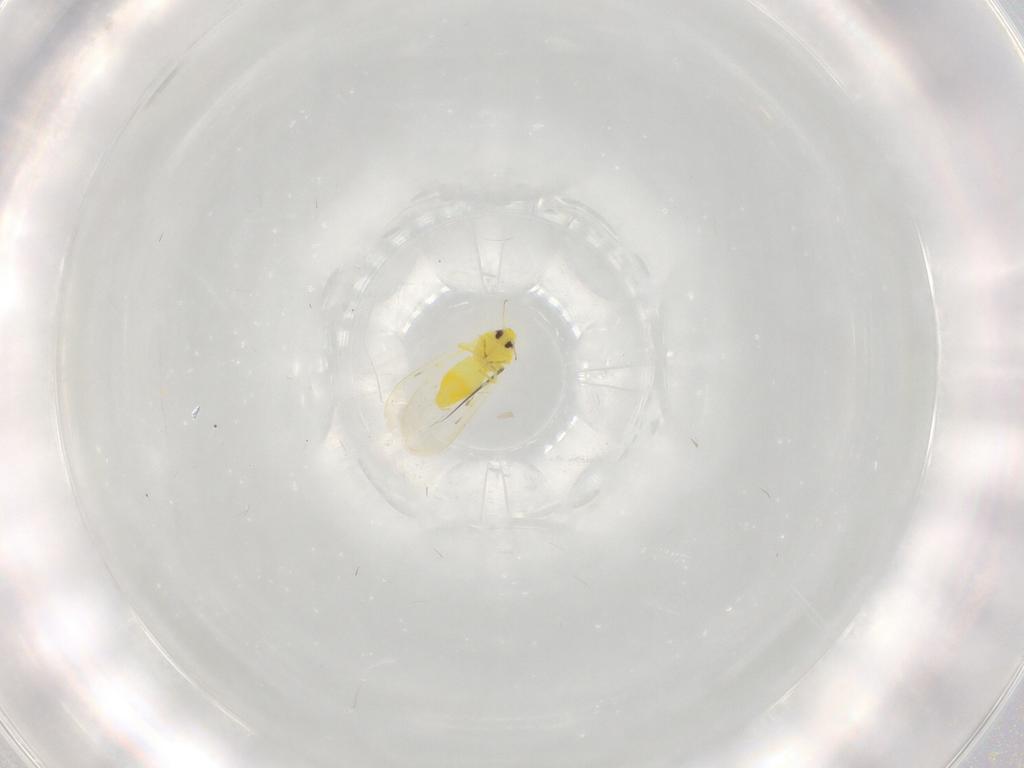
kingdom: Animalia
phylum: Arthropoda
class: Insecta
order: Hemiptera
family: Aleyrodidae
